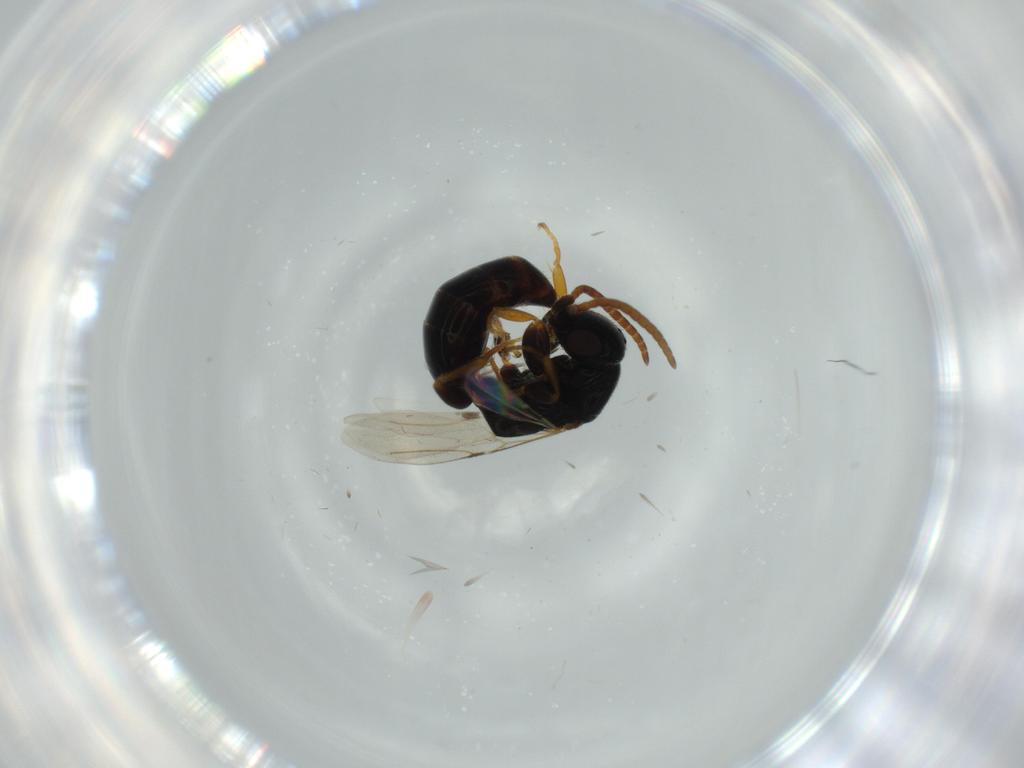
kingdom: Animalia
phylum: Arthropoda
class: Insecta
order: Hymenoptera
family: Bethylidae
